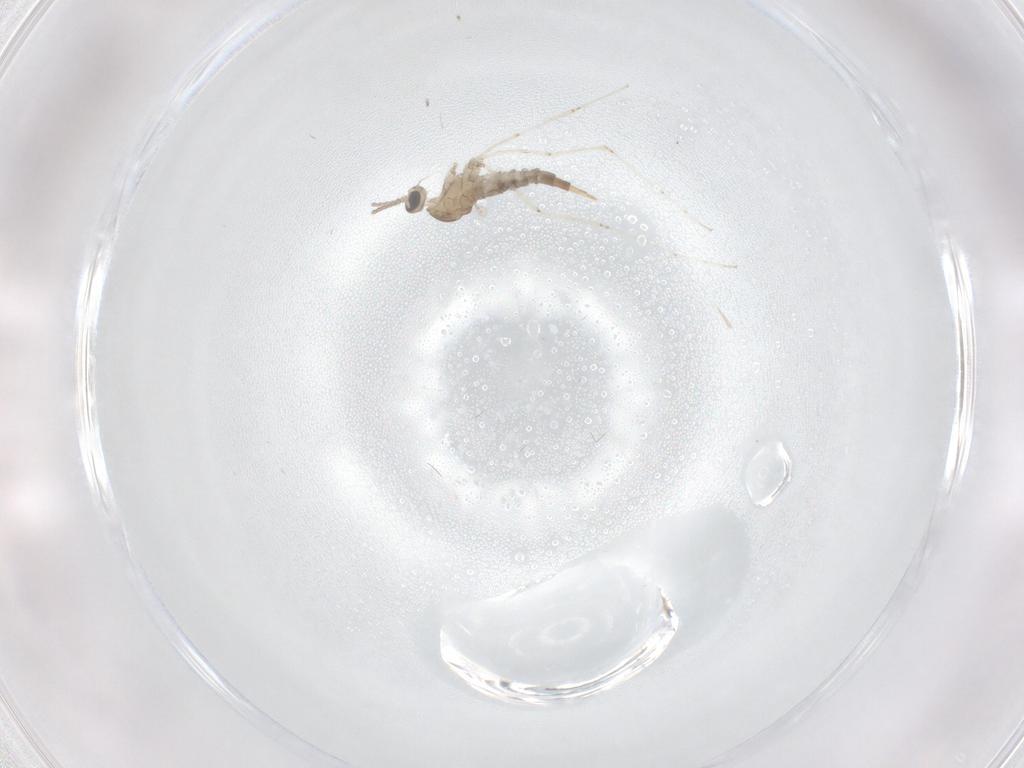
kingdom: Animalia
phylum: Arthropoda
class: Insecta
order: Diptera
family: Cecidomyiidae
